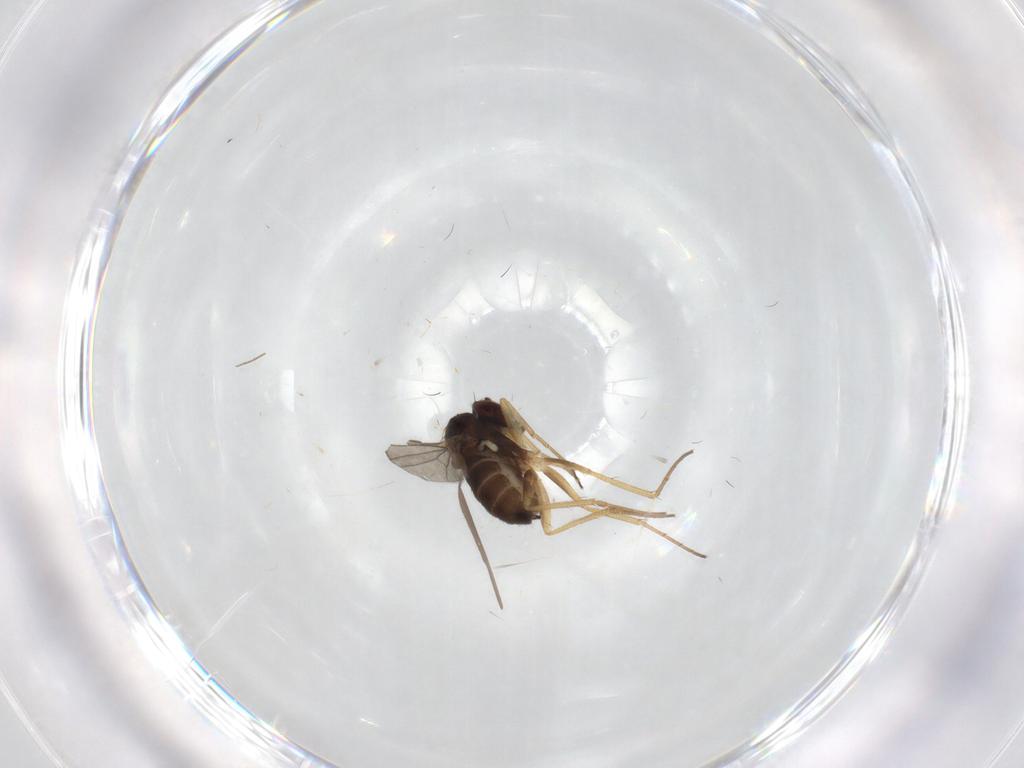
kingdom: Animalia
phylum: Arthropoda
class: Insecta
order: Diptera
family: Dolichopodidae
